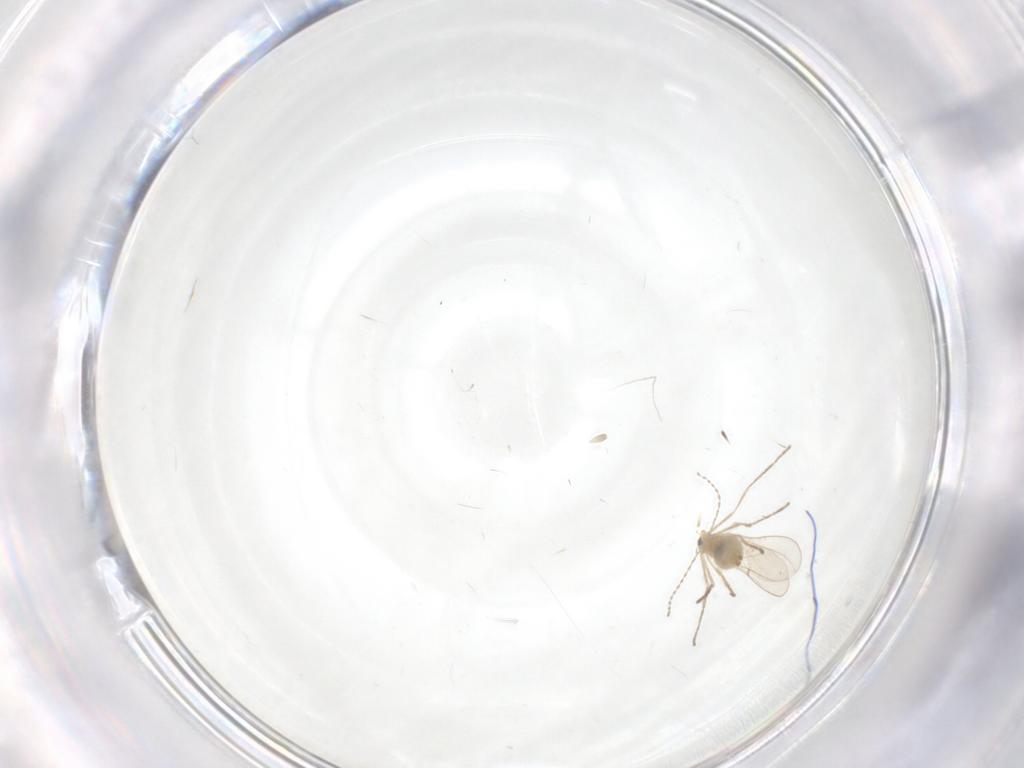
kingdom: Animalia
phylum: Arthropoda
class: Insecta
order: Diptera
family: Cecidomyiidae
